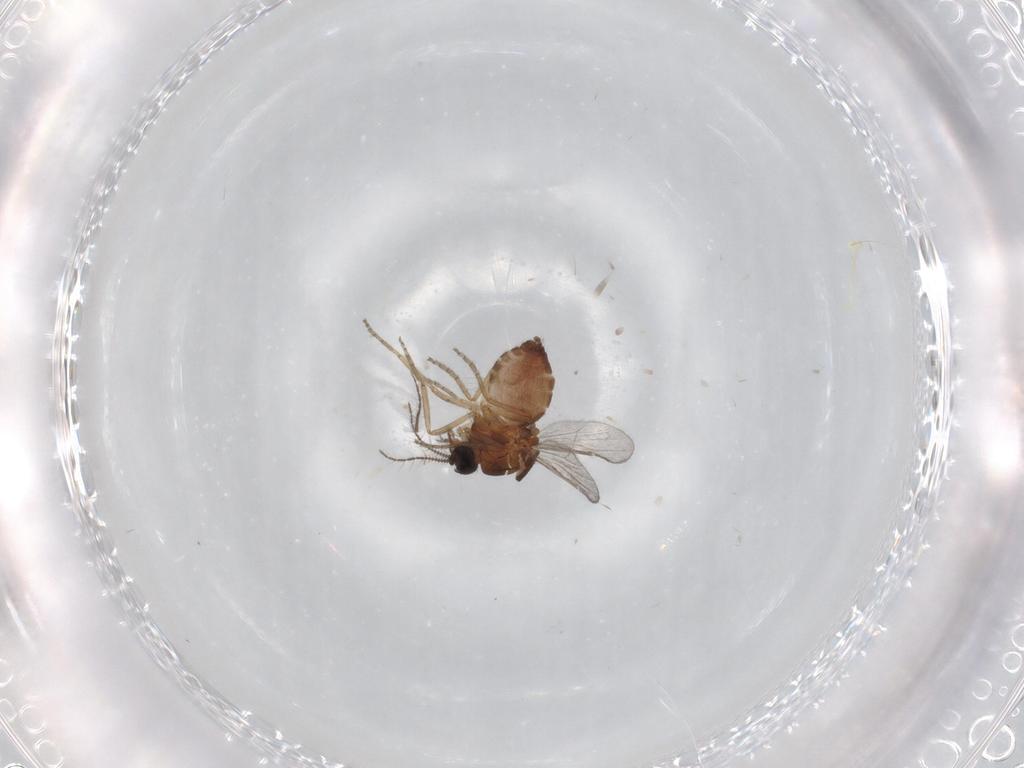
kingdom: Animalia
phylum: Arthropoda
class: Insecta
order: Diptera
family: Ceratopogonidae
